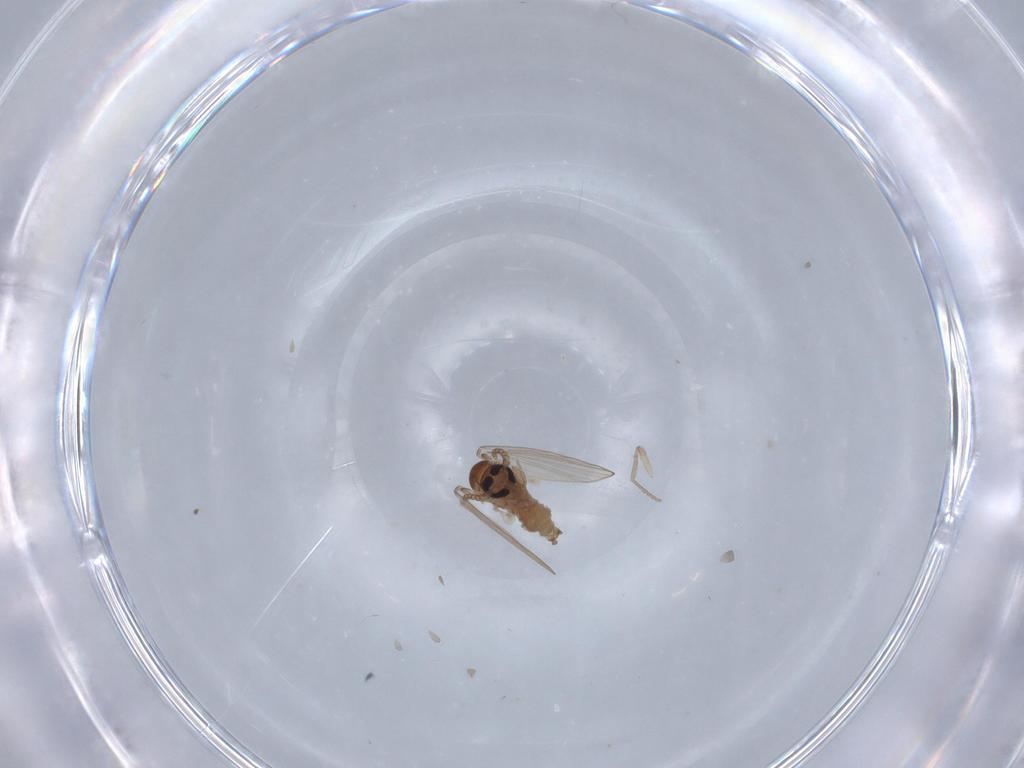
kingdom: Animalia
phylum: Arthropoda
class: Insecta
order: Diptera
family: Psychodidae
